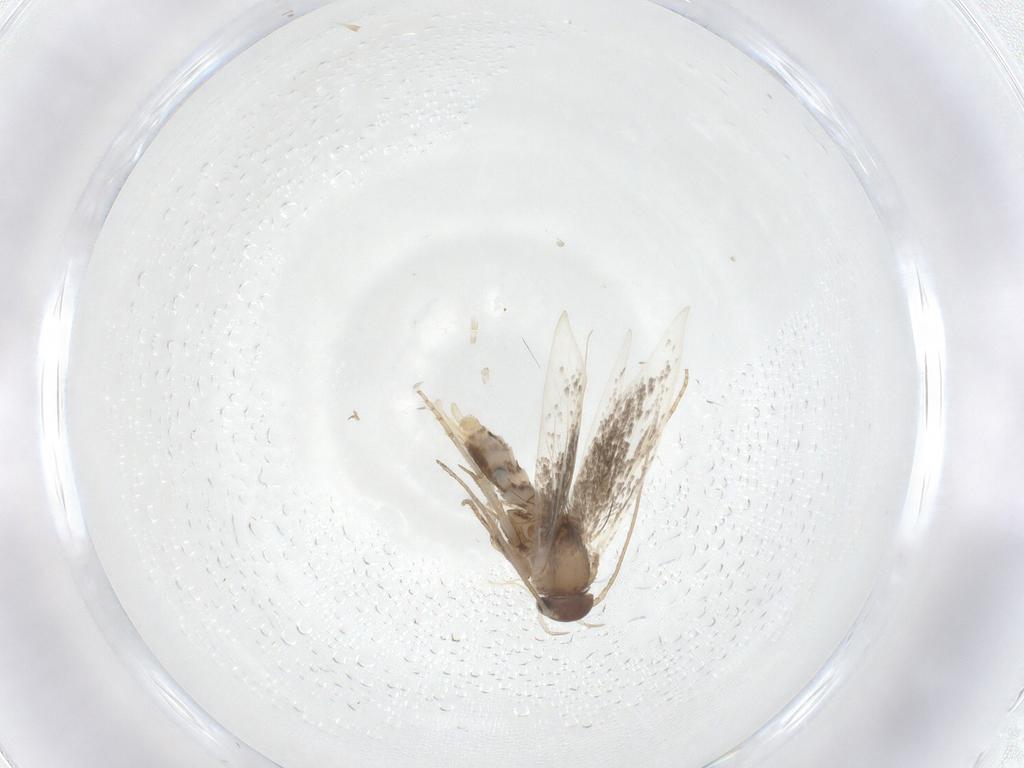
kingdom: Animalia
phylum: Arthropoda
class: Insecta
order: Lepidoptera
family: Elachistidae
